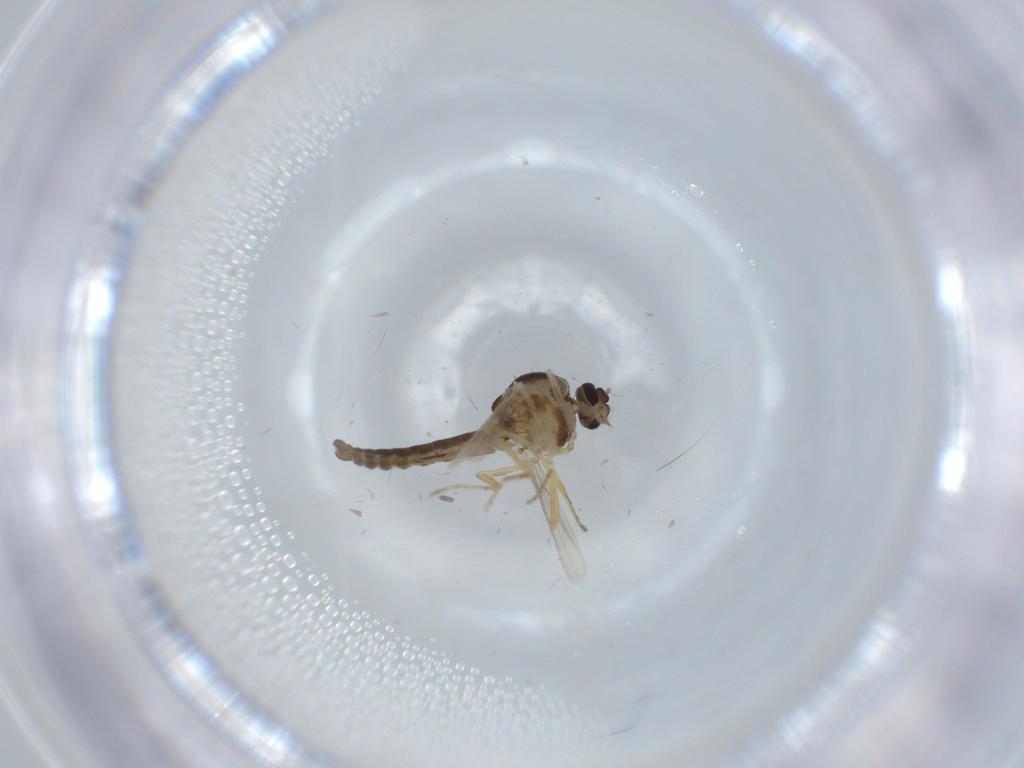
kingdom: Animalia
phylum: Arthropoda
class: Insecta
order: Diptera
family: Ceratopogonidae
